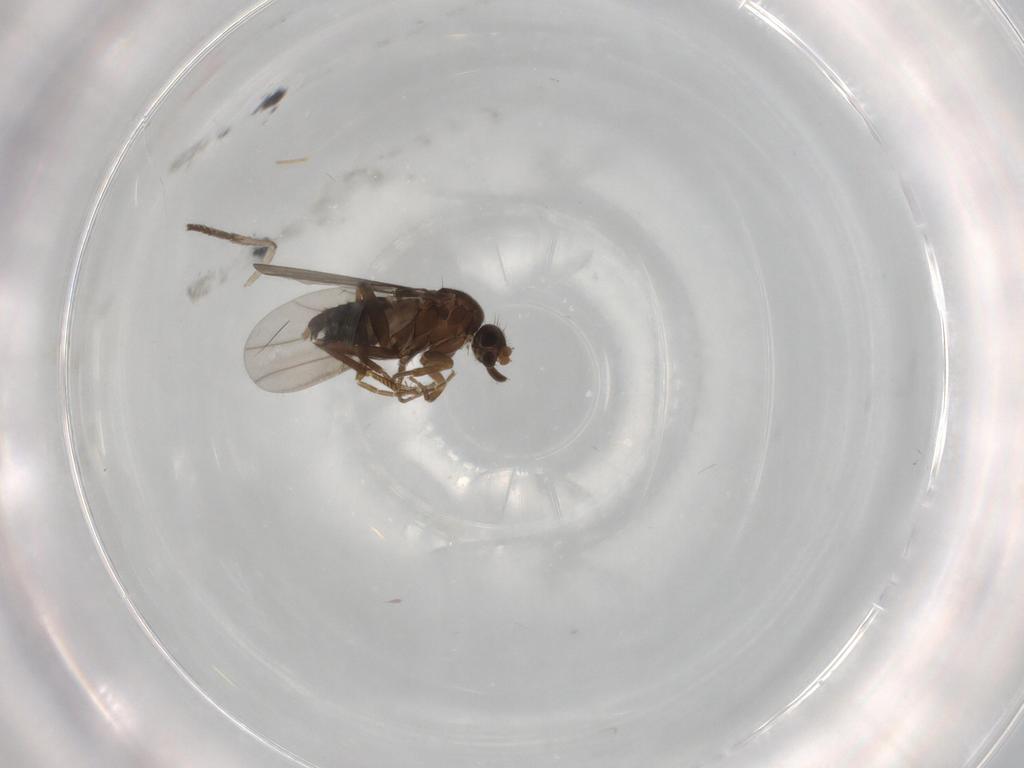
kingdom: Animalia
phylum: Arthropoda
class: Insecta
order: Diptera
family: Phoridae
